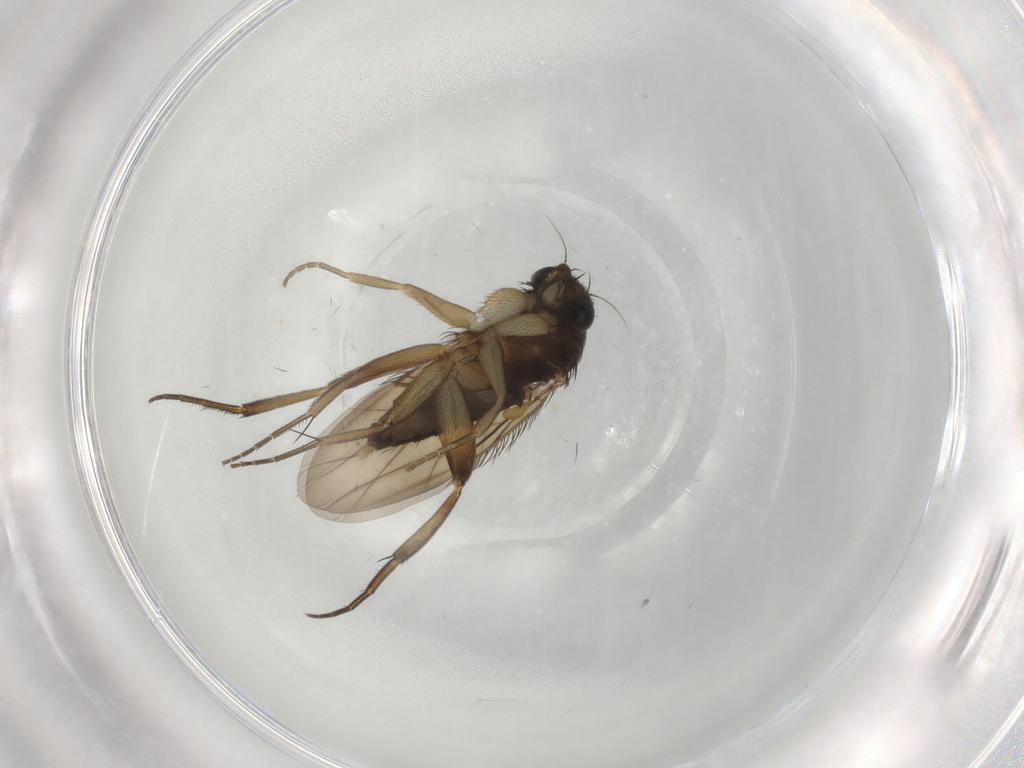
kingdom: Animalia
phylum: Arthropoda
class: Insecta
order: Diptera
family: Phoridae
